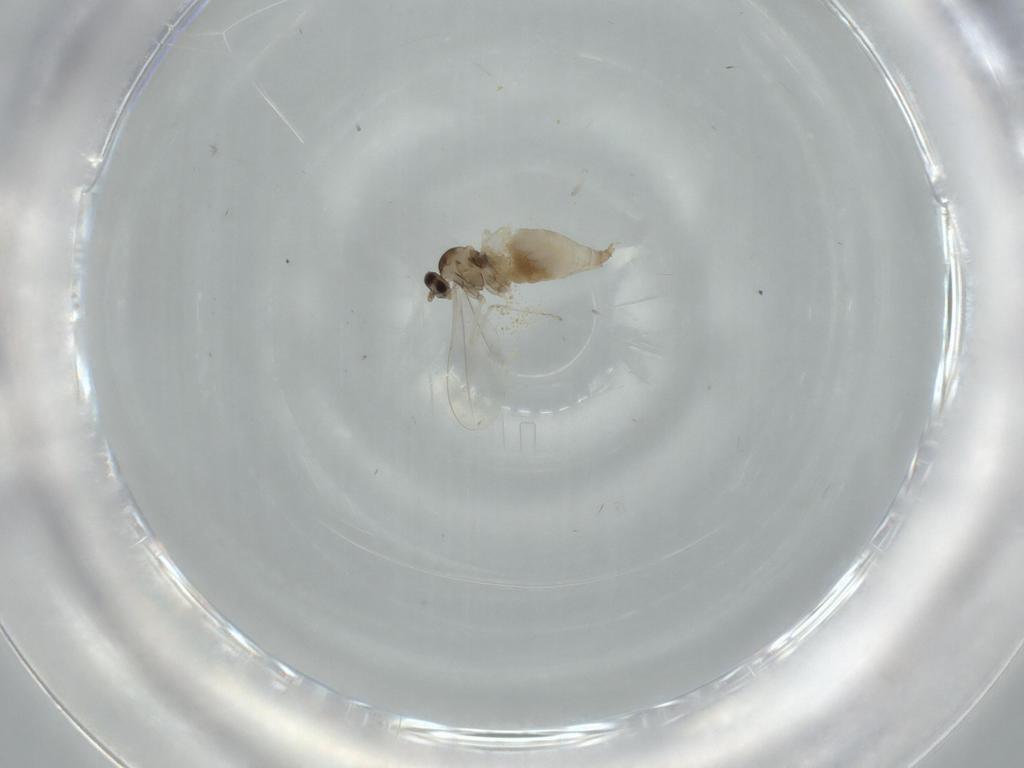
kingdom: Animalia
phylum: Arthropoda
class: Insecta
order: Diptera
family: Cecidomyiidae
